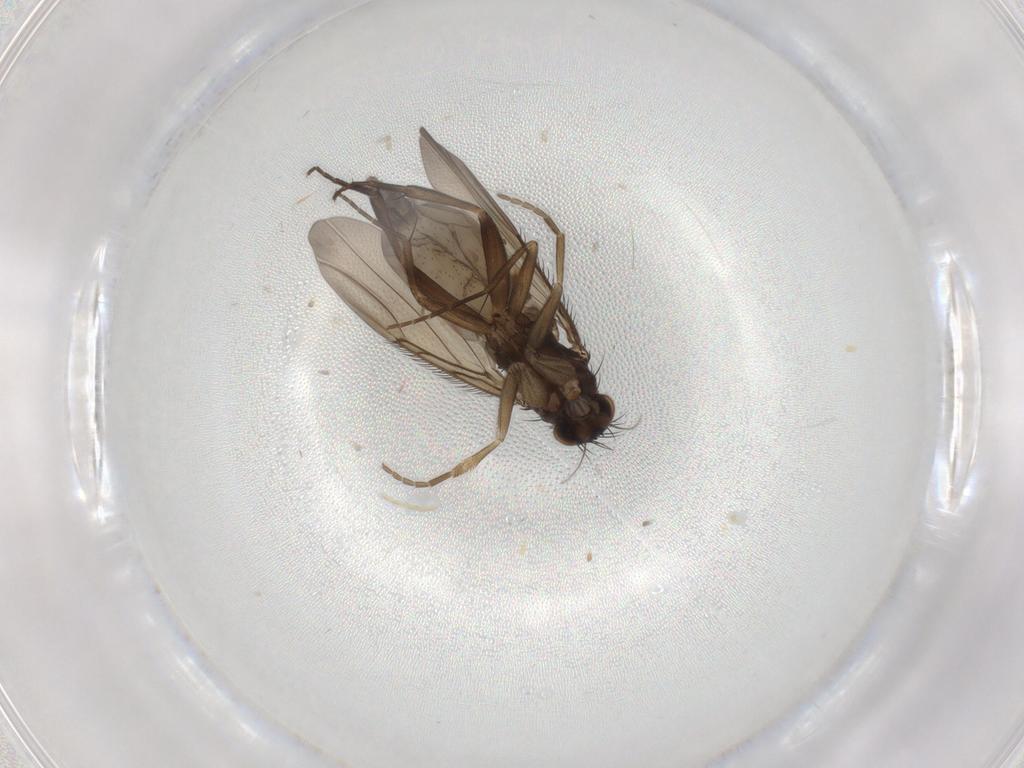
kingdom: Animalia
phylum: Arthropoda
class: Insecta
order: Diptera
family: Phoridae
